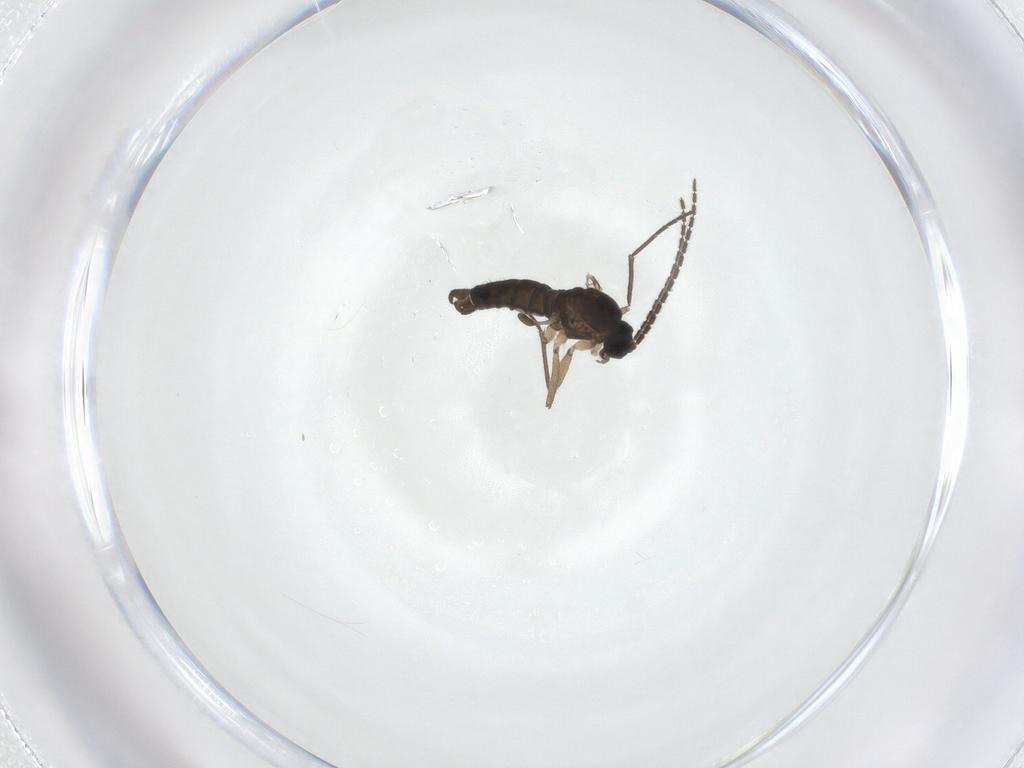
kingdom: Animalia
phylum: Arthropoda
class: Insecta
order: Diptera
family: Sciaridae
